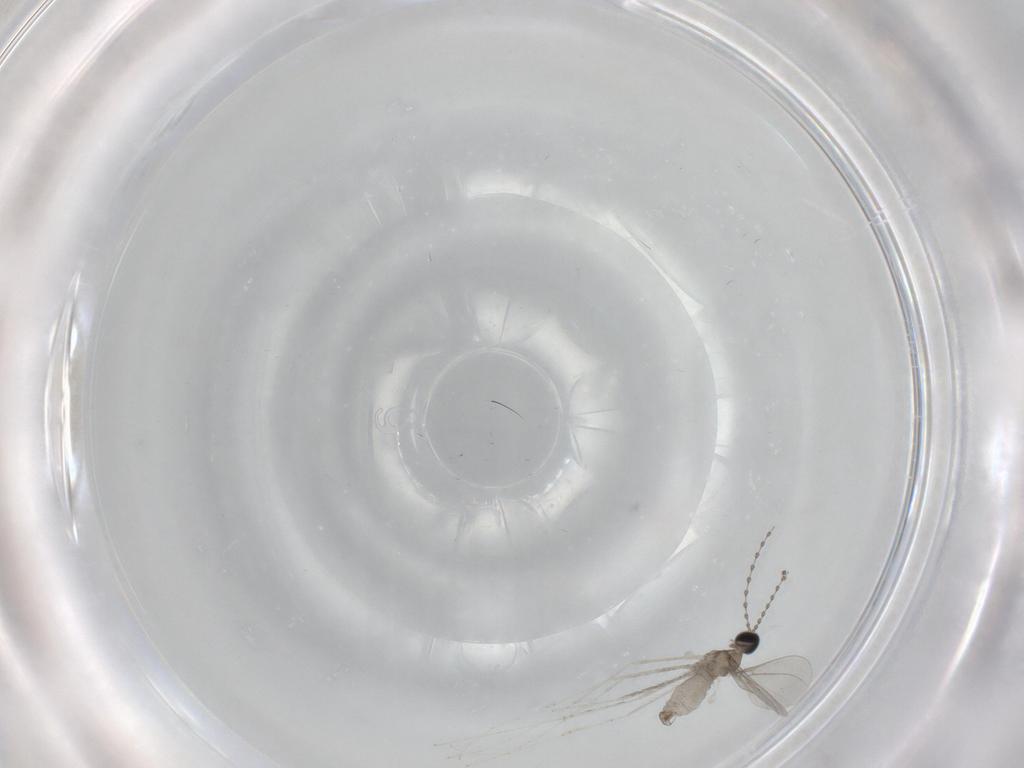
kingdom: Animalia
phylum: Arthropoda
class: Insecta
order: Diptera
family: Cecidomyiidae
